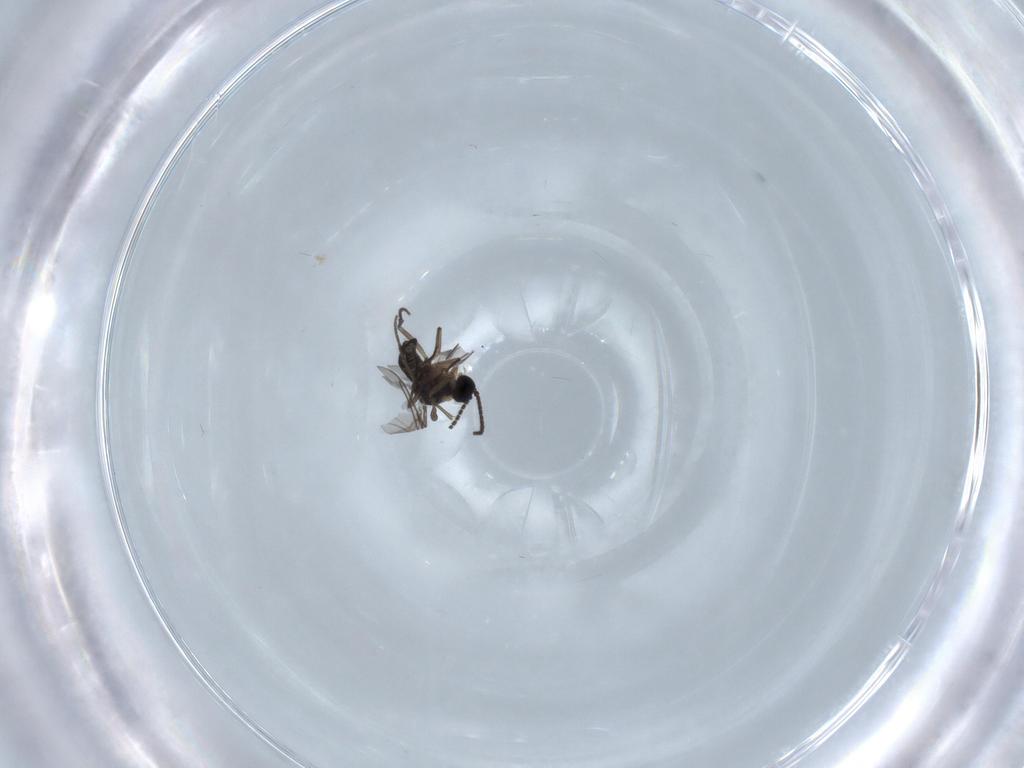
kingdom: Animalia
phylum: Arthropoda
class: Insecta
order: Diptera
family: Sciaridae
